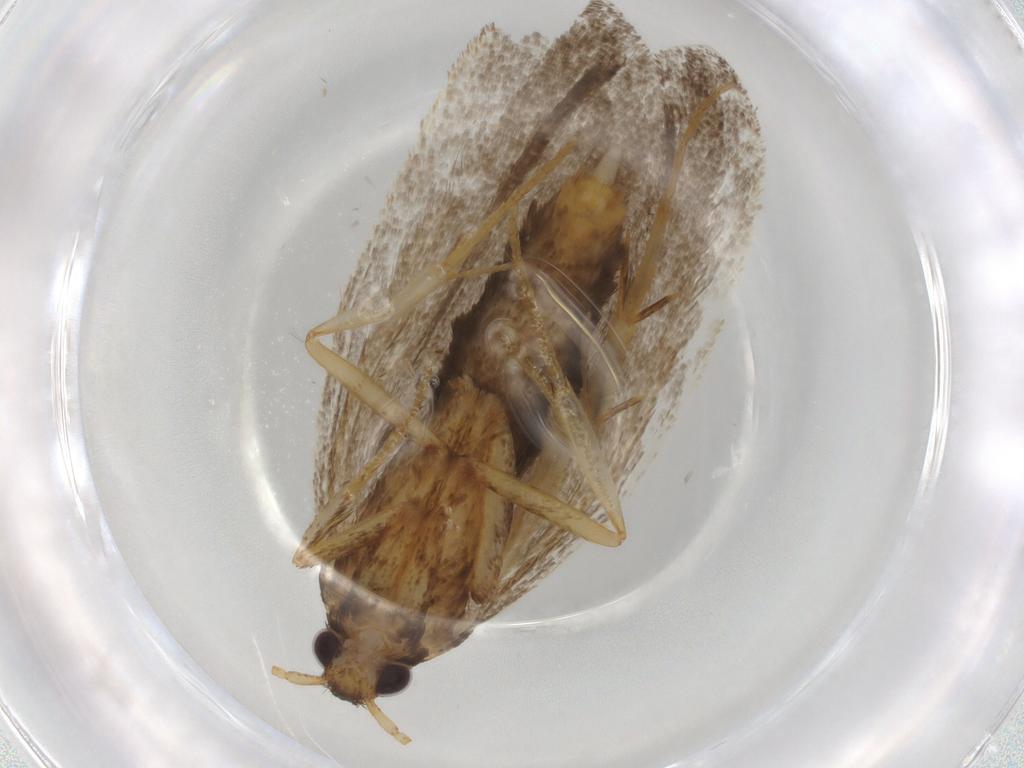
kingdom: Animalia
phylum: Arthropoda
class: Insecta
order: Lepidoptera
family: Lecithoceridae
